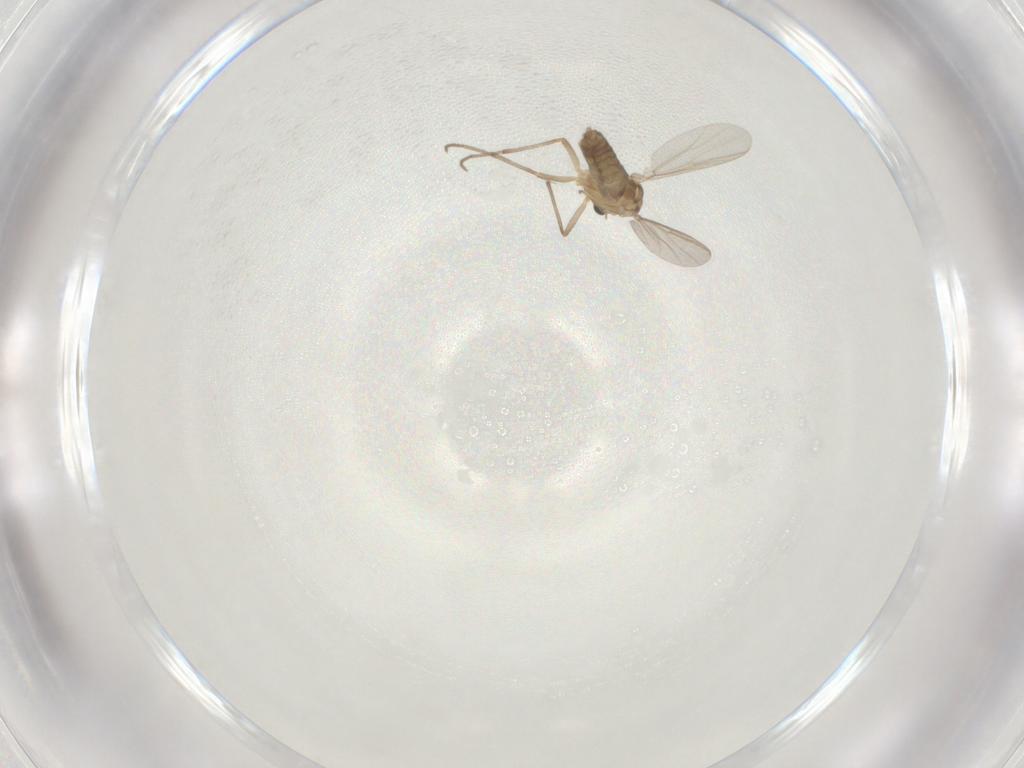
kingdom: Animalia
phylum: Arthropoda
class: Insecta
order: Diptera
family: Chironomidae
